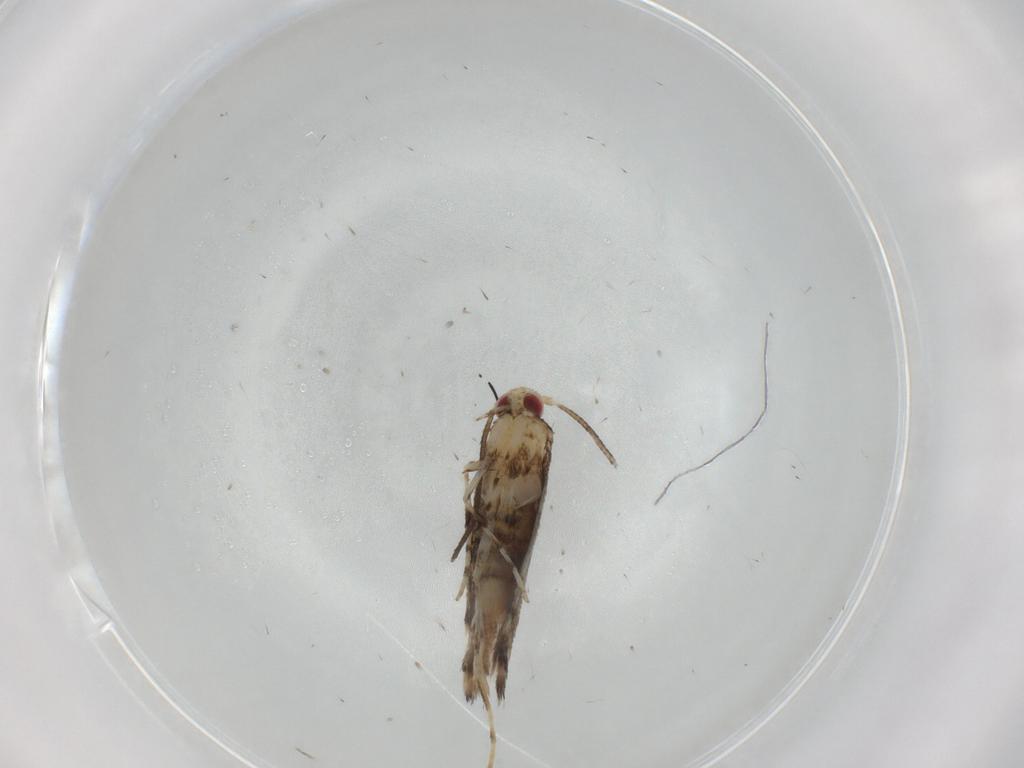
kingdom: Animalia
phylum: Arthropoda
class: Insecta
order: Lepidoptera
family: Gracillariidae
